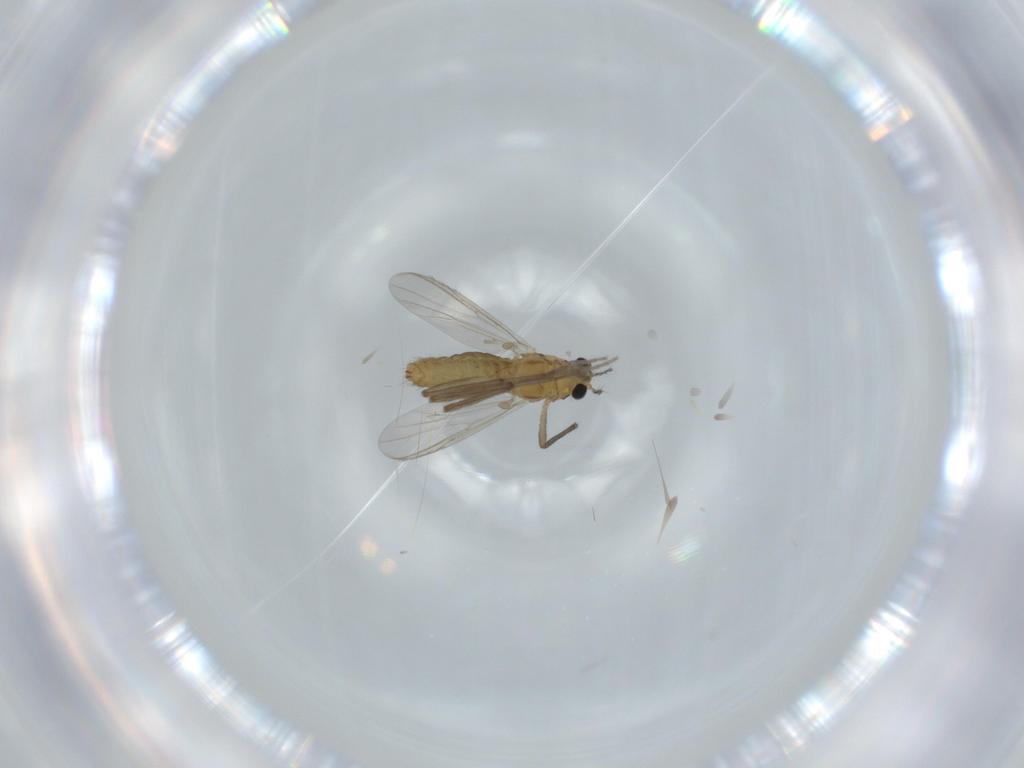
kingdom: Animalia
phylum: Arthropoda
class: Insecta
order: Diptera
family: Chironomidae
